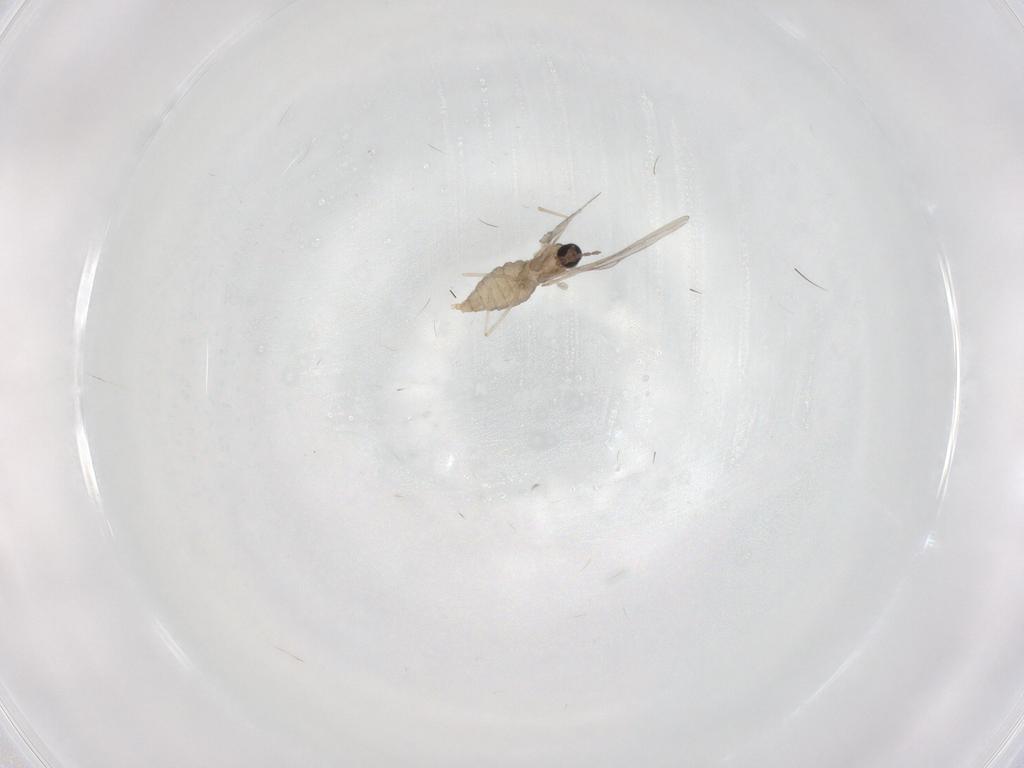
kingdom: Animalia
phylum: Arthropoda
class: Insecta
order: Diptera
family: Cecidomyiidae
